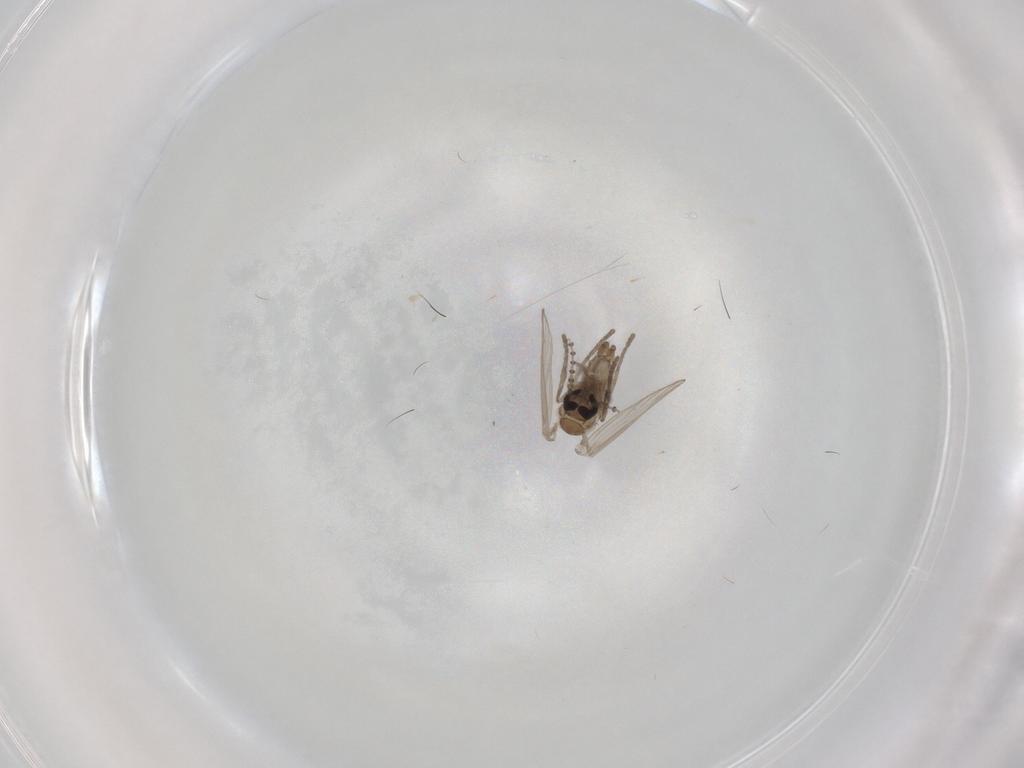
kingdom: Animalia
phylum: Arthropoda
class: Insecta
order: Diptera
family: Psychodidae
